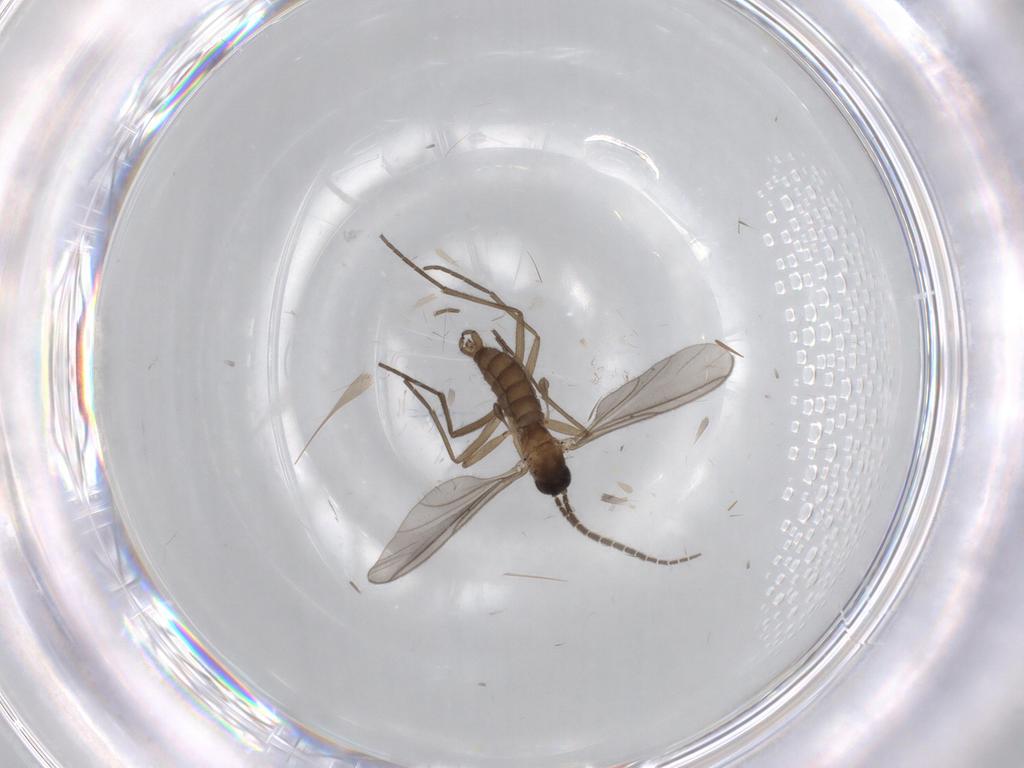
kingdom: Animalia
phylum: Arthropoda
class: Insecta
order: Diptera
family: Sciaridae
